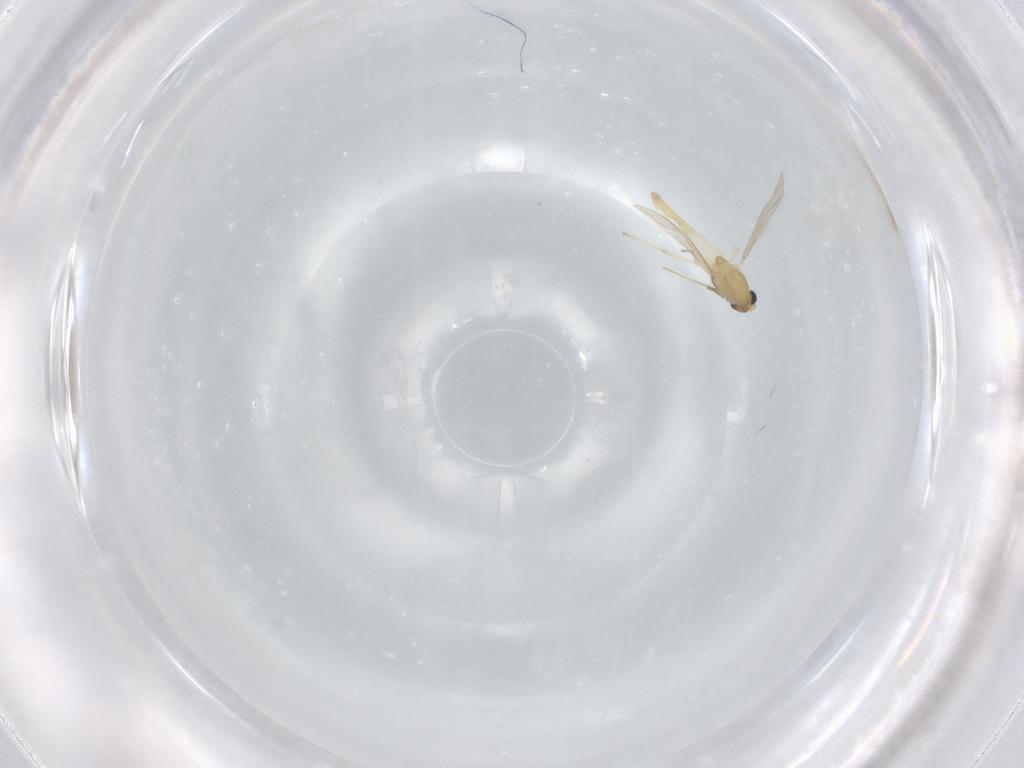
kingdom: Animalia
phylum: Arthropoda
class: Insecta
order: Diptera
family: Chironomidae
